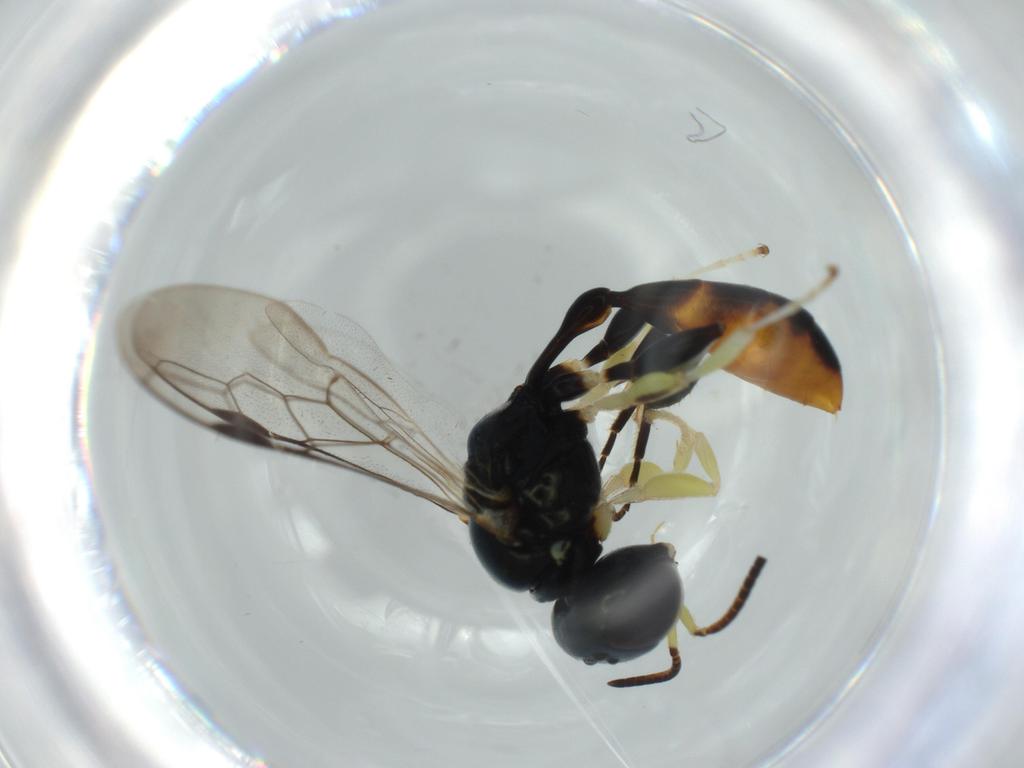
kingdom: Animalia
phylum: Arthropoda
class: Insecta
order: Hymenoptera
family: Crabronidae
